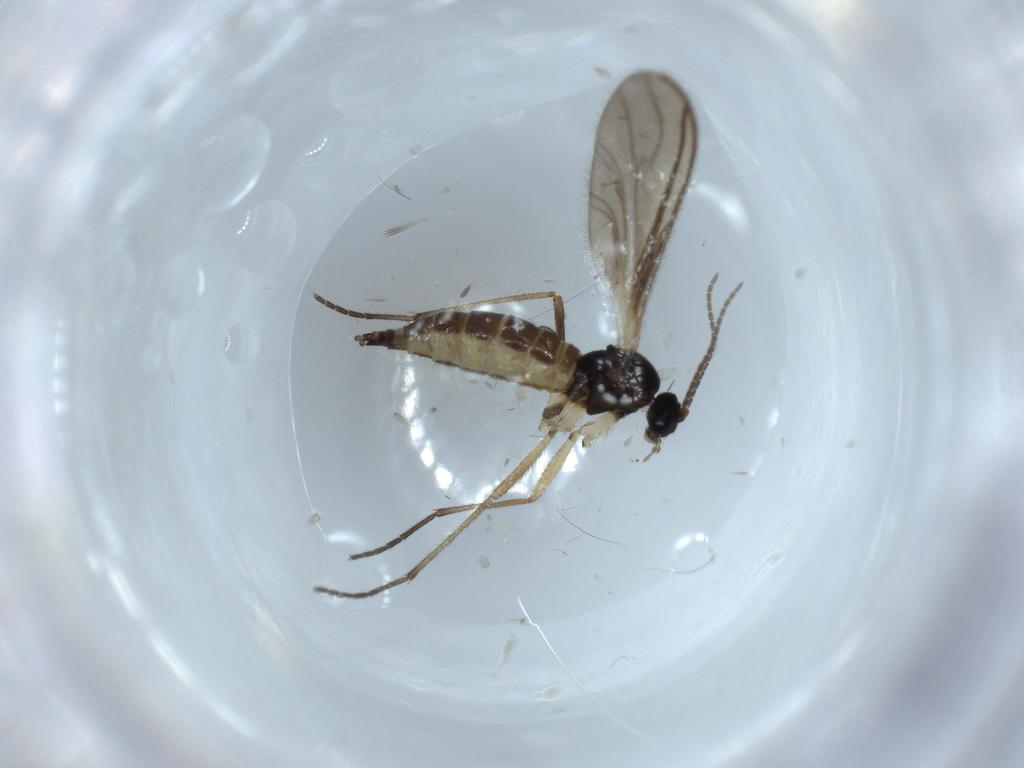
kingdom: Animalia
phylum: Arthropoda
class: Insecta
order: Diptera
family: Sciaridae
